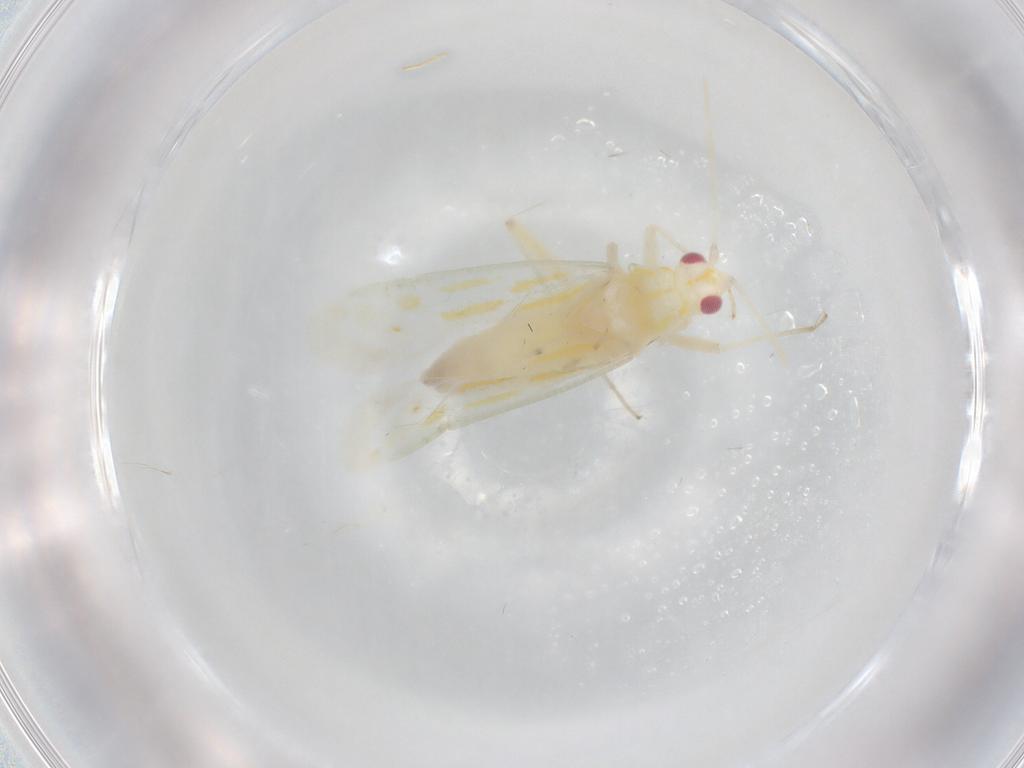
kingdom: Animalia
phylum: Arthropoda
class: Insecta
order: Hemiptera
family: Miridae
